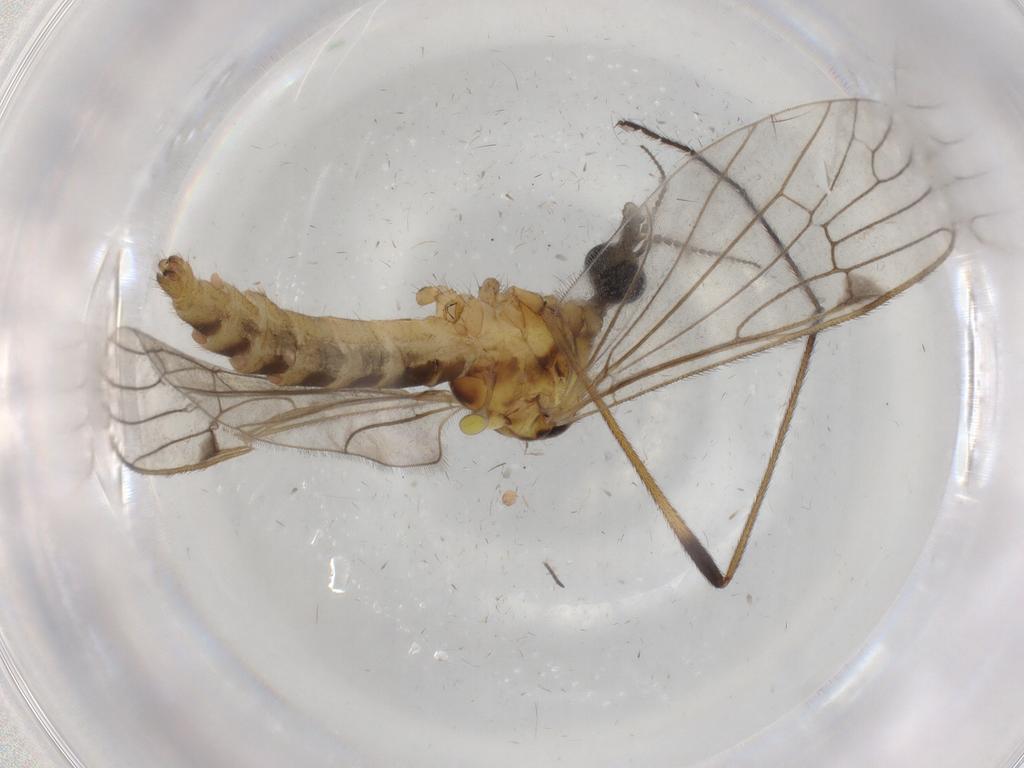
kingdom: Animalia
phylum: Arthropoda
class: Insecta
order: Diptera
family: Ceratopogonidae
